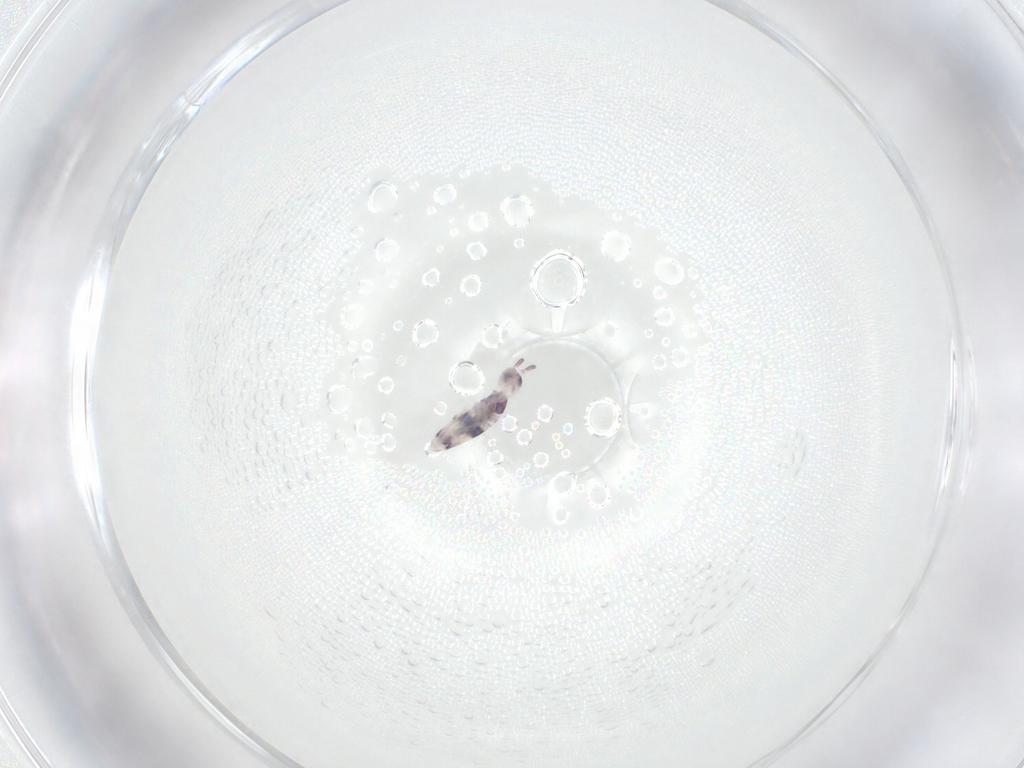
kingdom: Animalia
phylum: Arthropoda
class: Collembola
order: Entomobryomorpha
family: Entomobryidae
